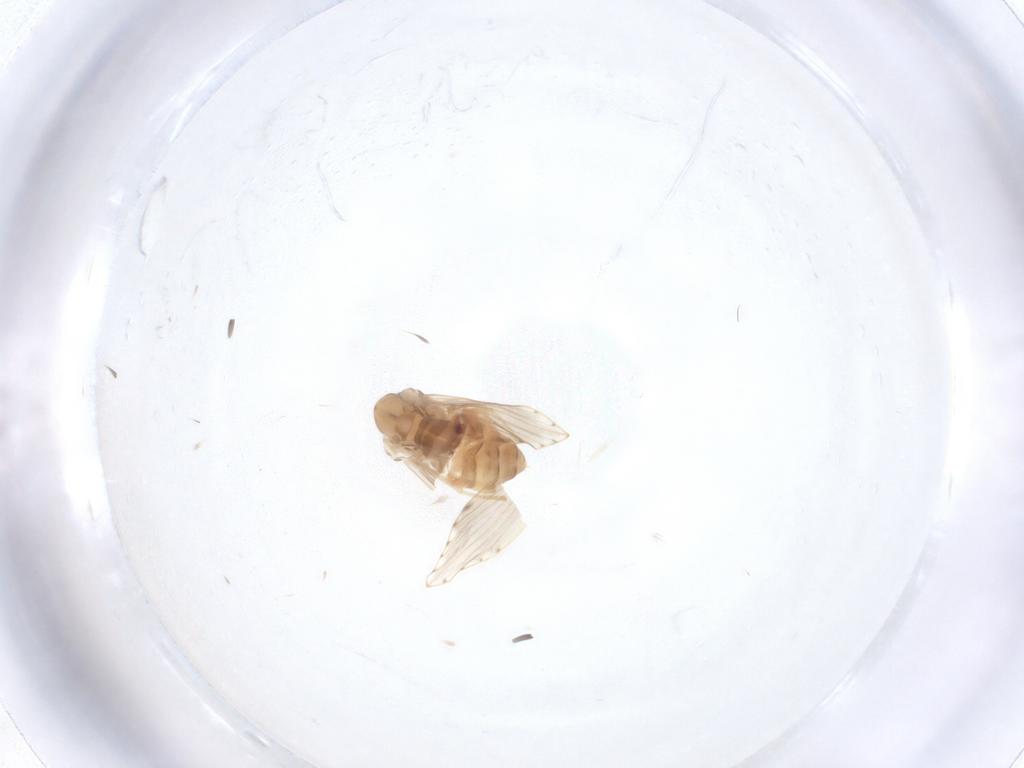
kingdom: Animalia
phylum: Arthropoda
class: Insecta
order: Diptera
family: Psychodidae
